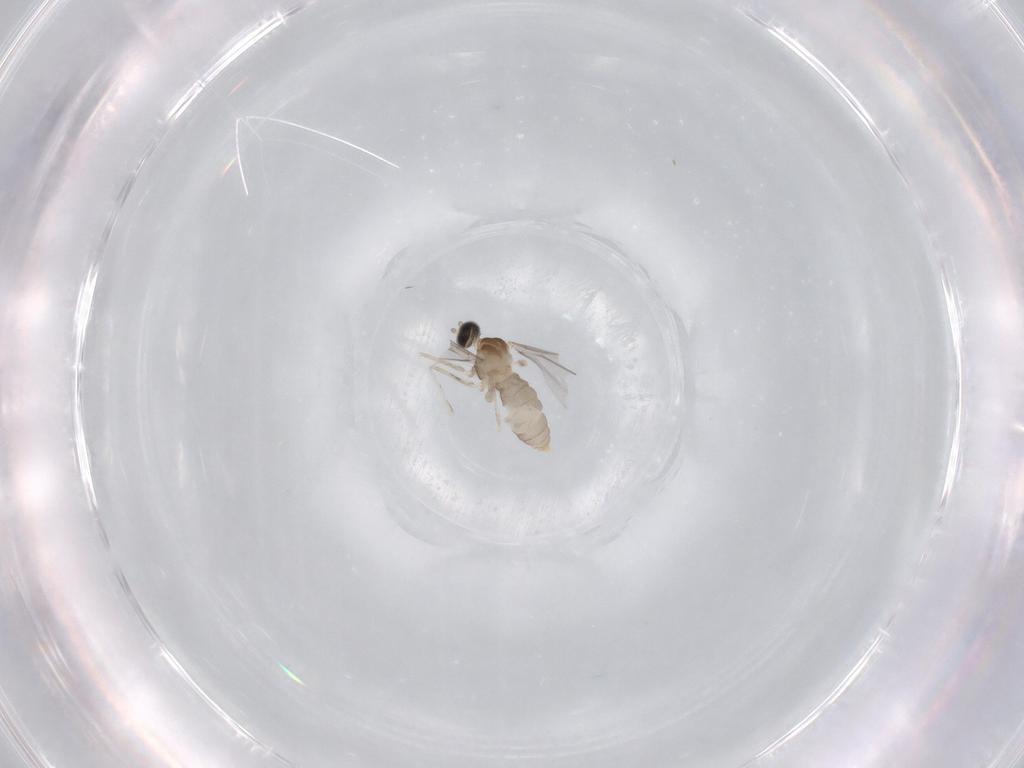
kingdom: Animalia
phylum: Arthropoda
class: Insecta
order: Diptera
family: Cecidomyiidae
